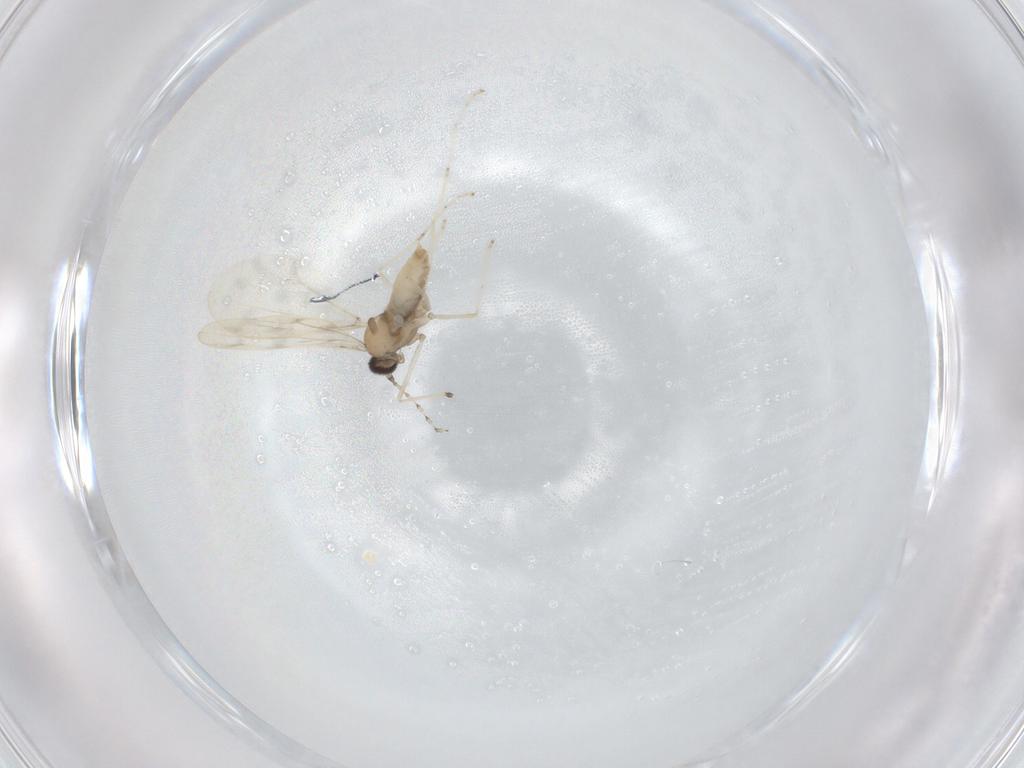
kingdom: Animalia
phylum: Arthropoda
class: Insecta
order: Diptera
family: Cecidomyiidae
